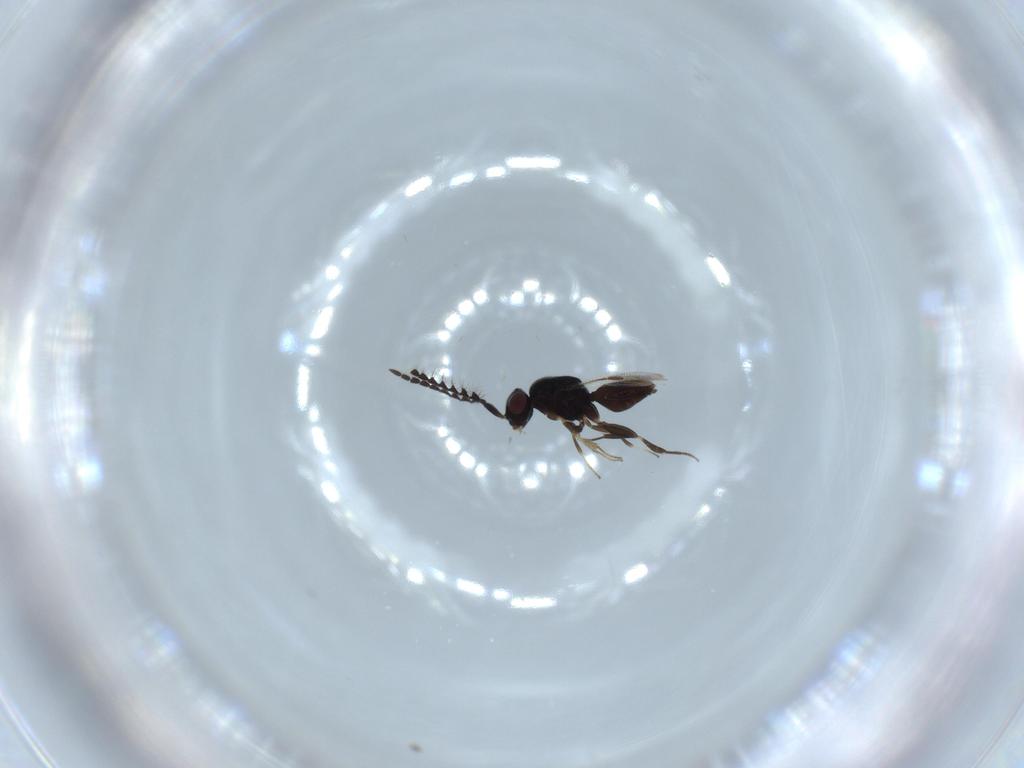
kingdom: Animalia
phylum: Arthropoda
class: Insecta
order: Hymenoptera
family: Megaspilidae
